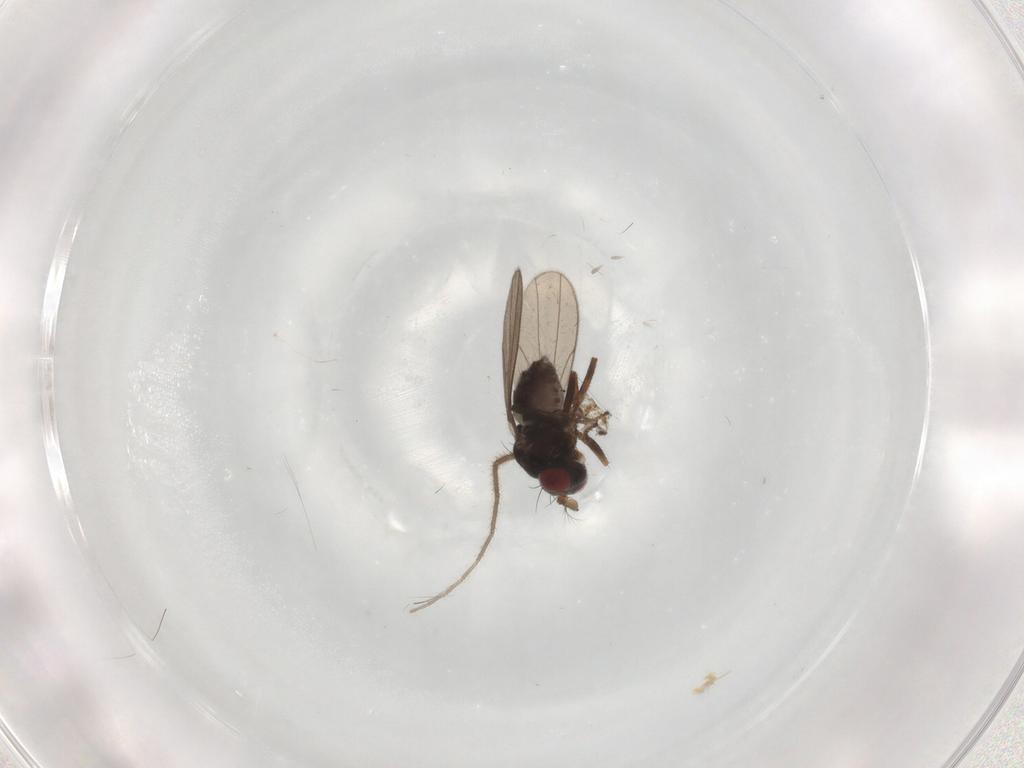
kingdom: Animalia
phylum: Arthropoda
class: Insecta
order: Diptera
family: Ephydridae
